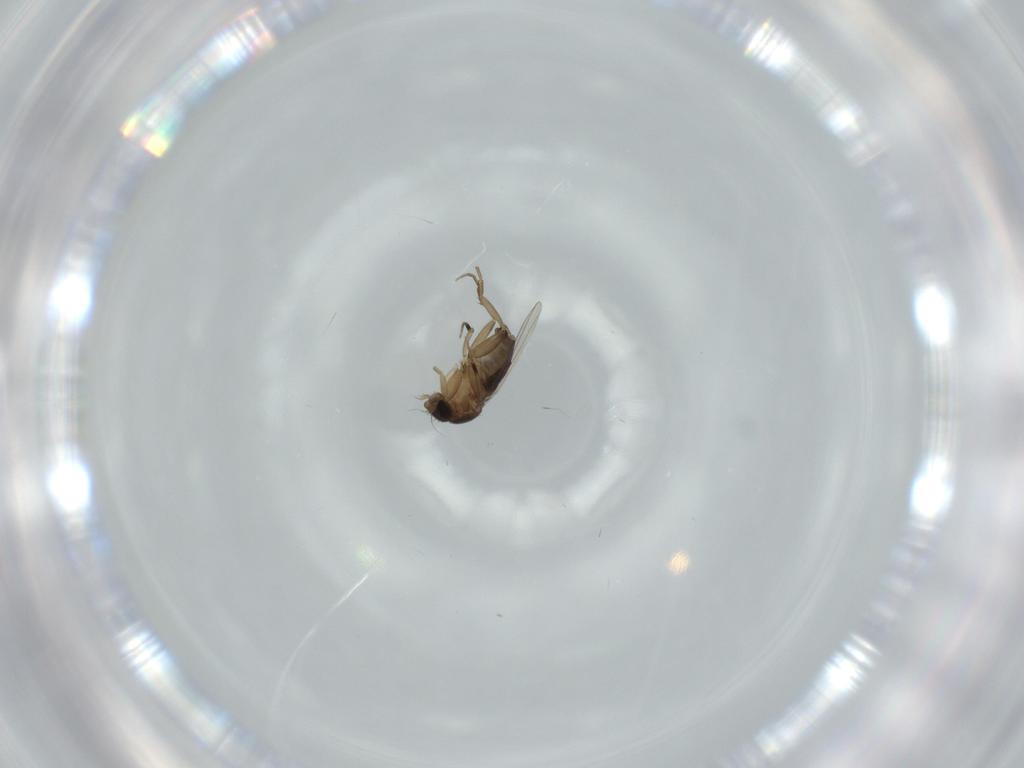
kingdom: Animalia
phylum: Arthropoda
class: Insecta
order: Diptera
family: Phoridae
